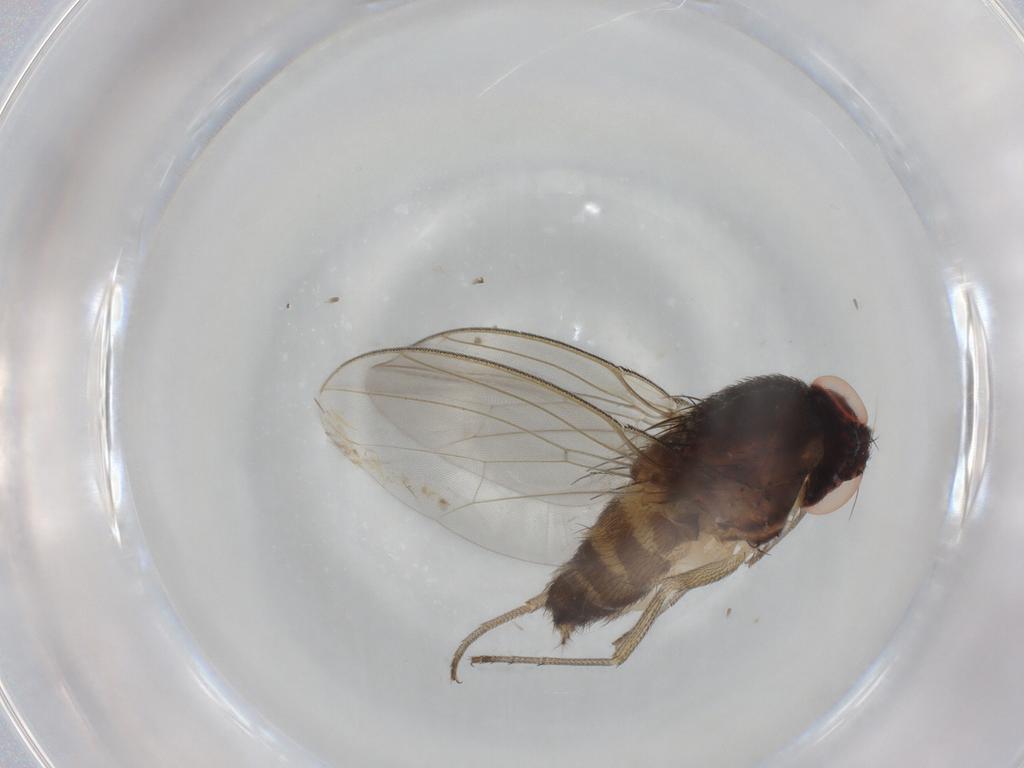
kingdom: Animalia
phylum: Arthropoda
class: Insecta
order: Diptera
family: Drosophilidae
